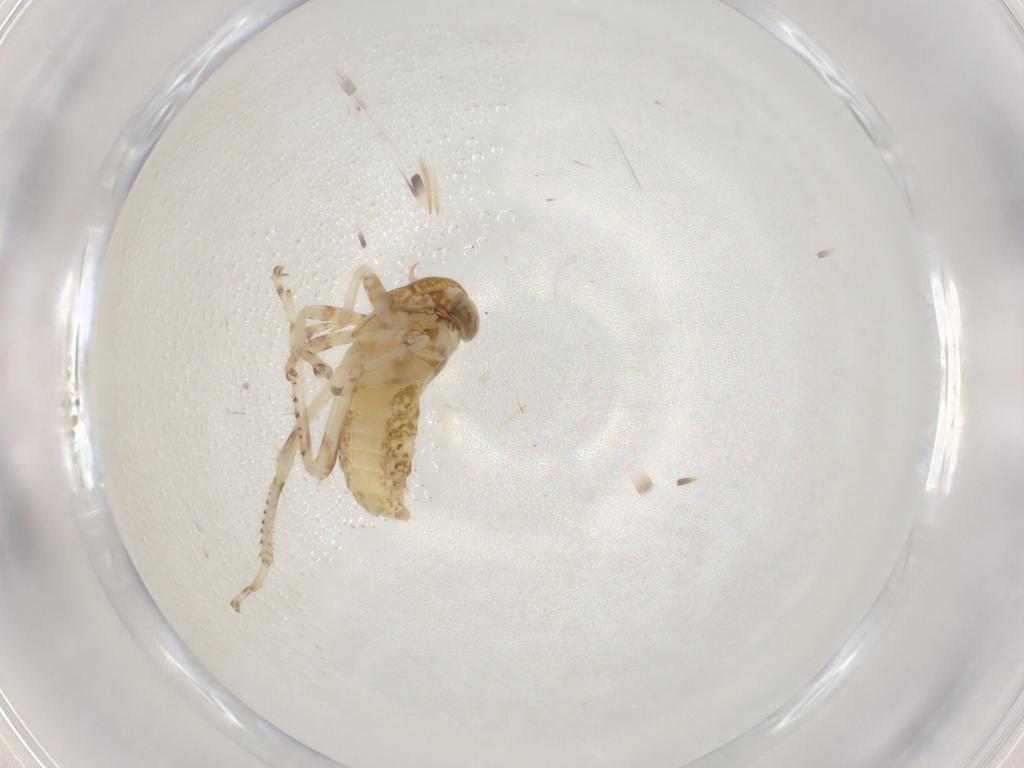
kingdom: Animalia
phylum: Arthropoda
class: Insecta
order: Hemiptera
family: Cicadellidae
